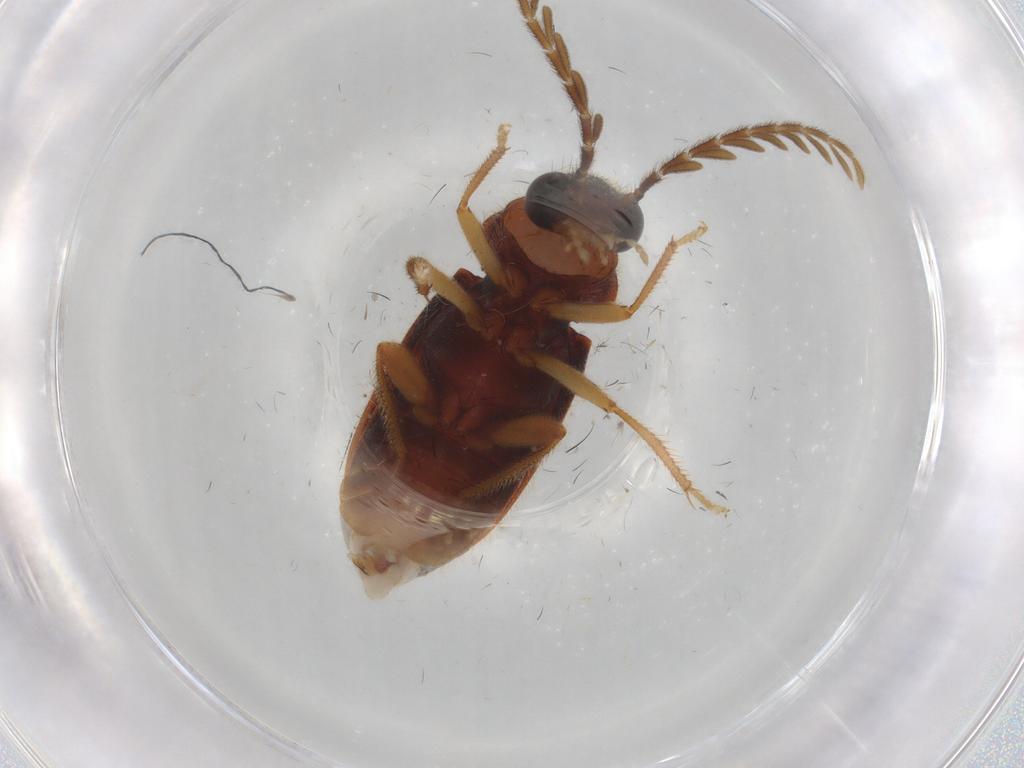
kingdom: Animalia
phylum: Arthropoda
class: Insecta
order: Coleoptera
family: Ptilodactylidae
